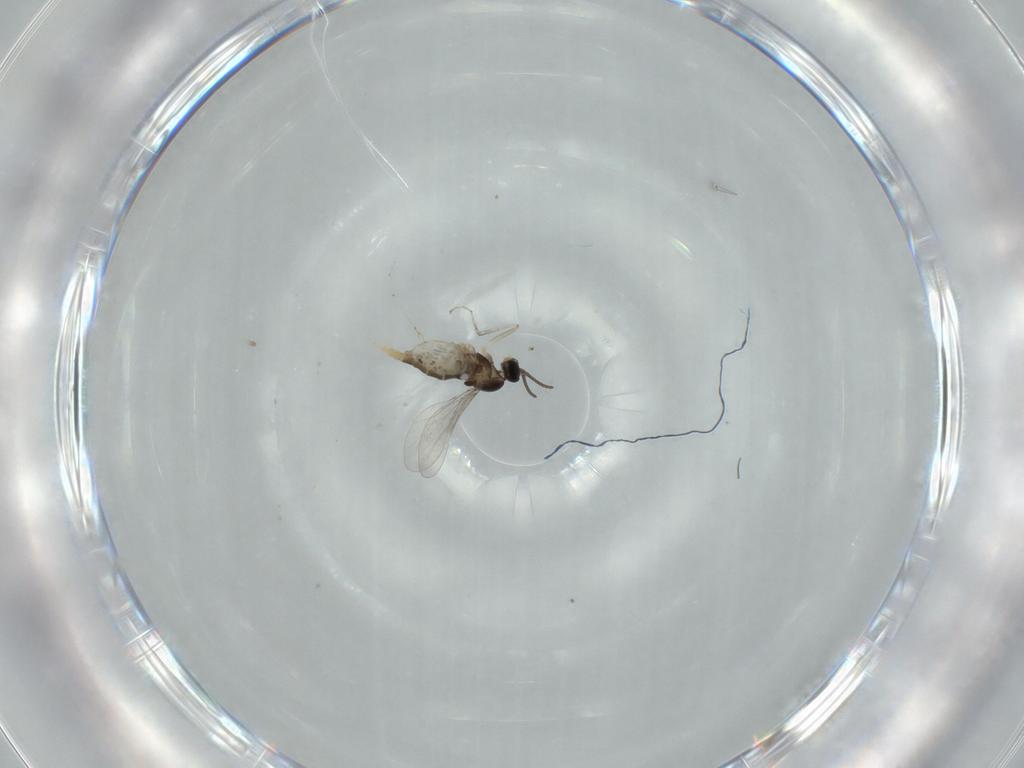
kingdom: Animalia
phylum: Arthropoda
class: Insecta
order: Diptera
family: Cecidomyiidae
